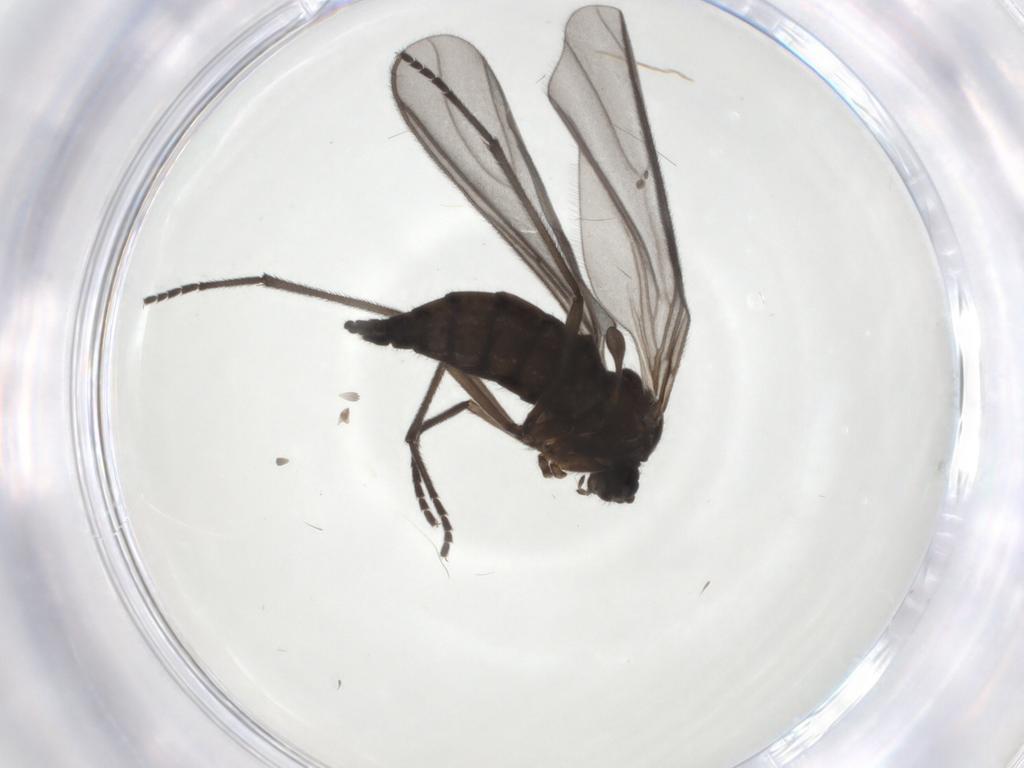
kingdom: Animalia
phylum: Arthropoda
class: Insecta
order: Diptera
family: Sciaridae
